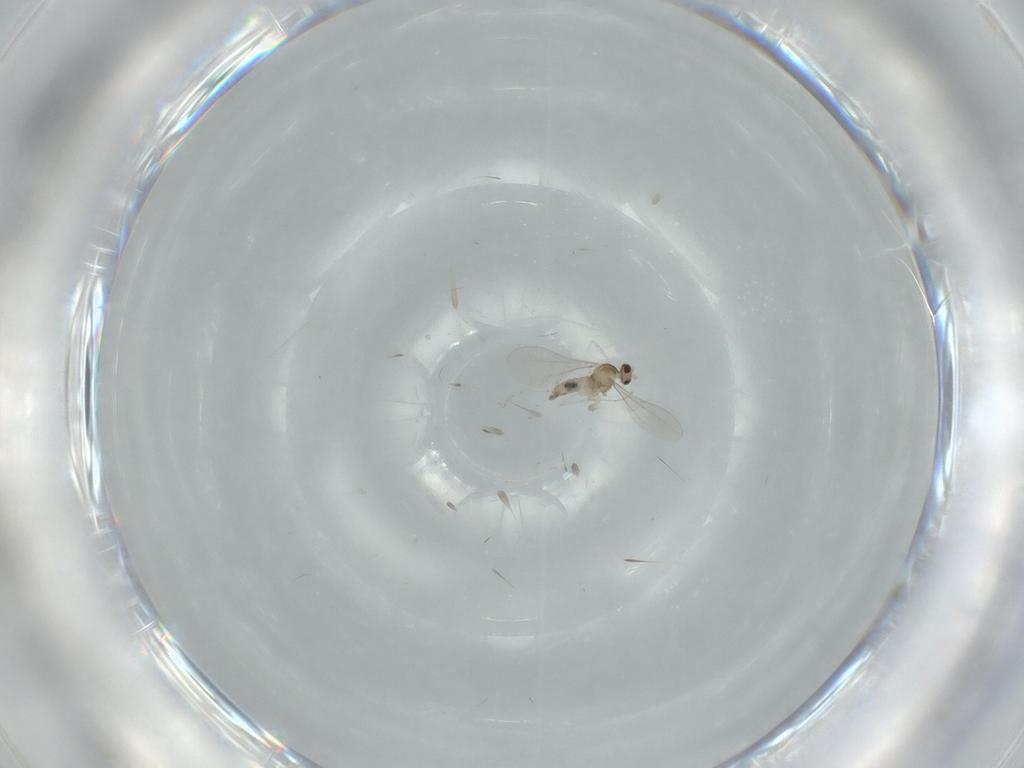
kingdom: Animalia
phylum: Arthropoda
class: Insecta
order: Diptera
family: Cecidomyiidae
